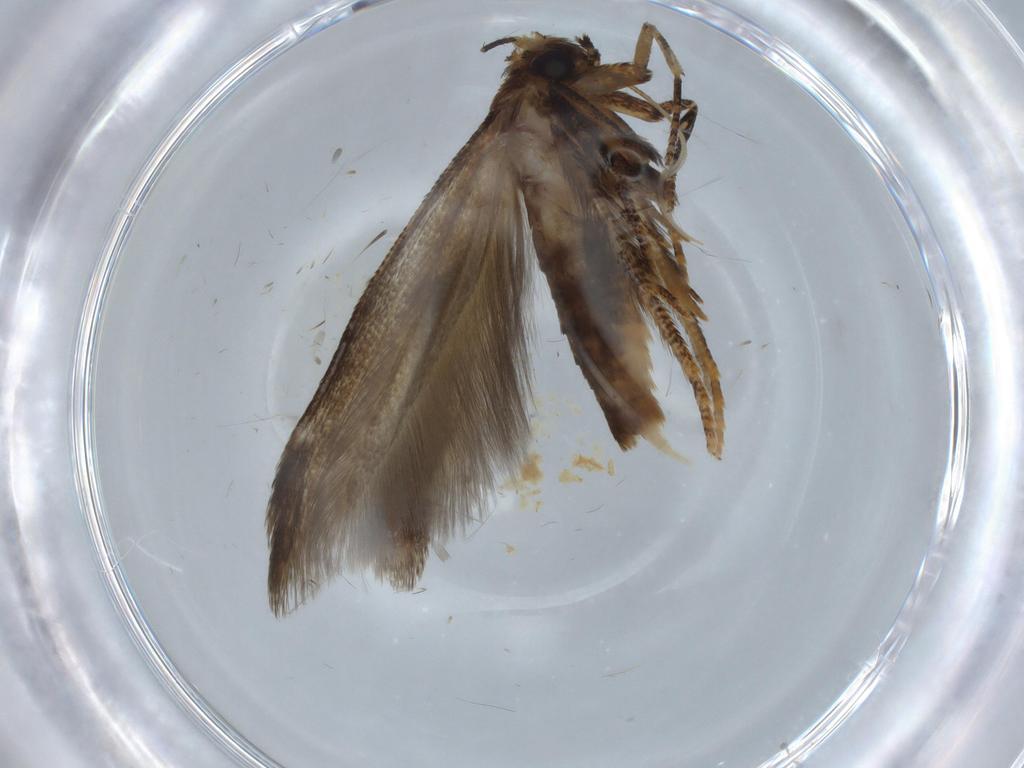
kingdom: Animalia
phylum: Arthropoda
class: Insecta
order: Lepidoptera
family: Blastobasidae
